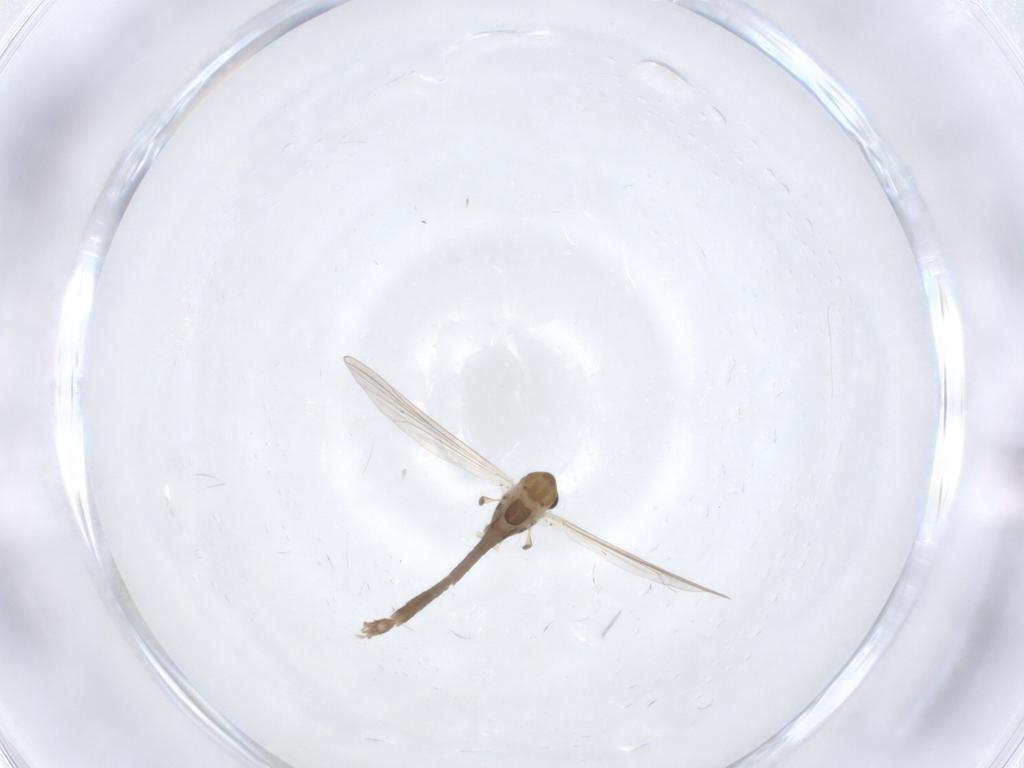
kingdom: Animalia
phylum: Arthropoda
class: Insecta
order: Diptera
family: Chironomidae
